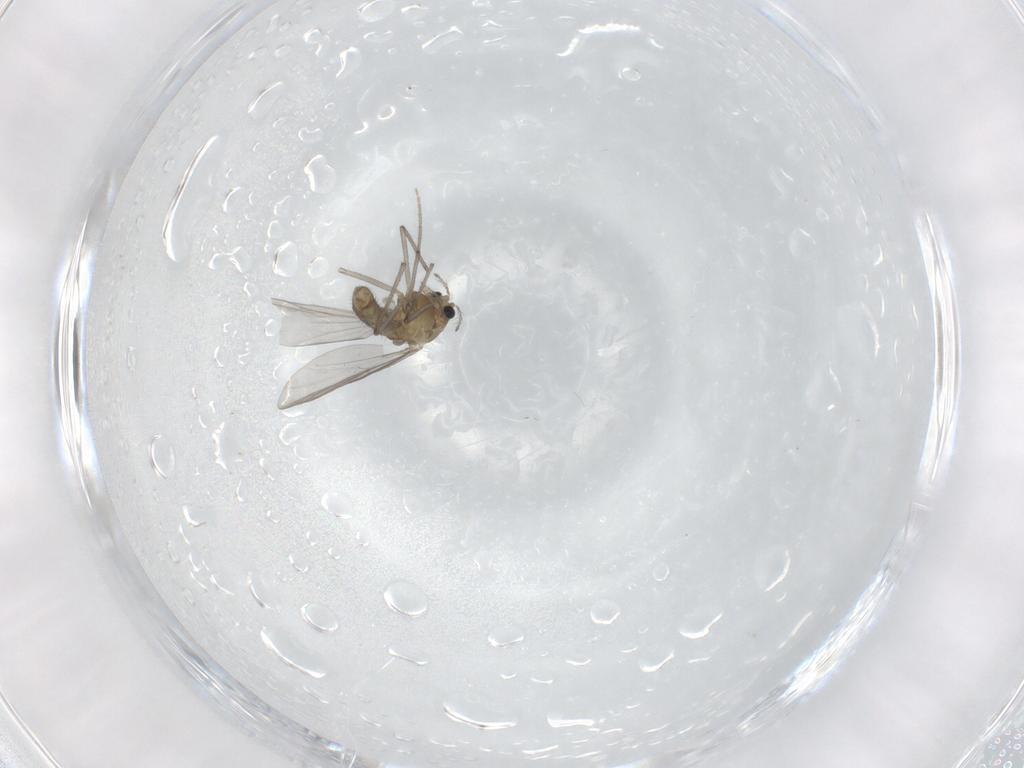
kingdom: Animalia
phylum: Arthropoda
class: Insecta
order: Diptera
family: Chironomidae
